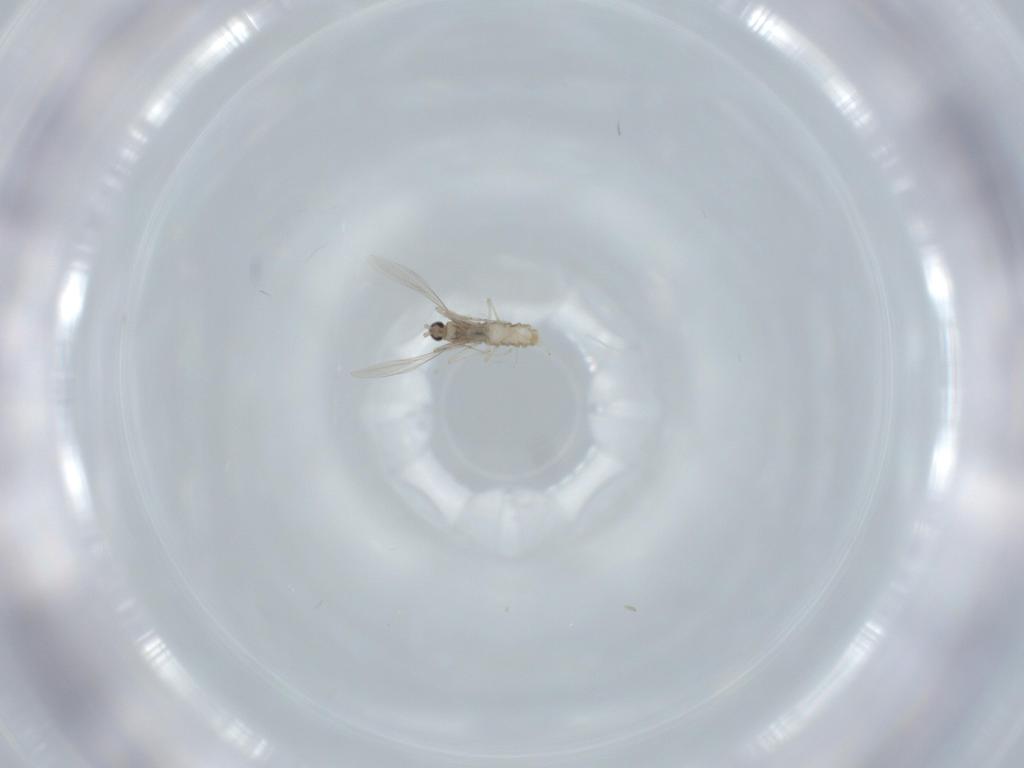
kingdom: Animalia
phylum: Arthropoda
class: Insecta
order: Diptera
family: Cecidomyiidae
